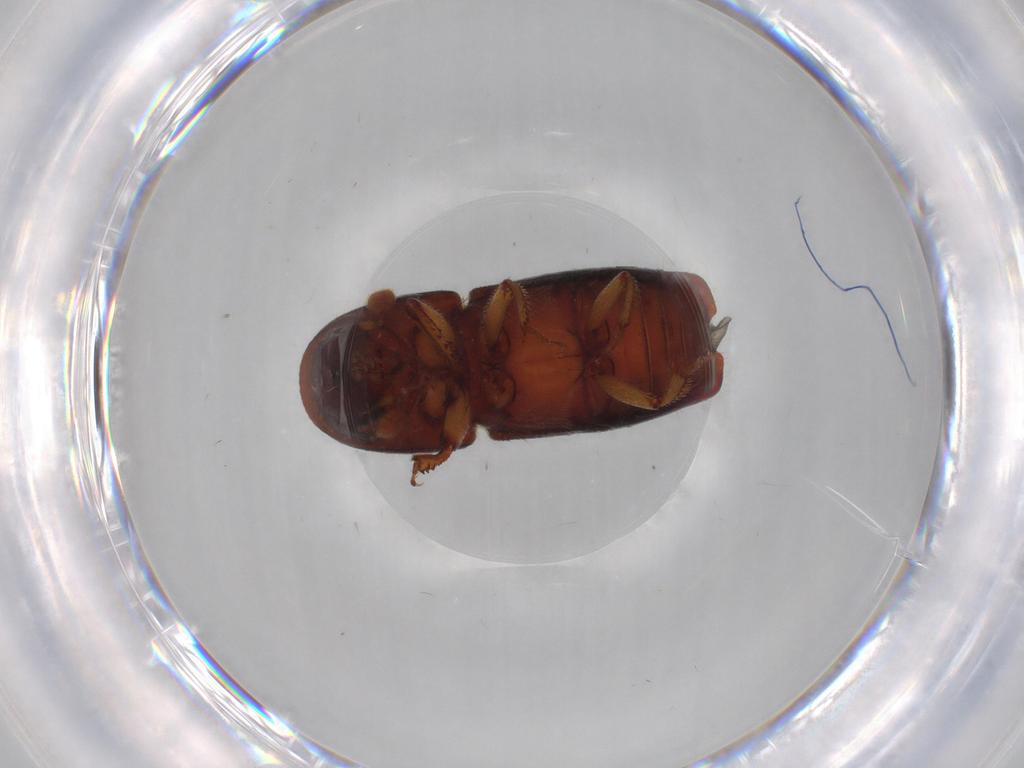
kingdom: Animalia
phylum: Arthropoda
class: Insecta
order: Coleoptera
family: Curculionidae
